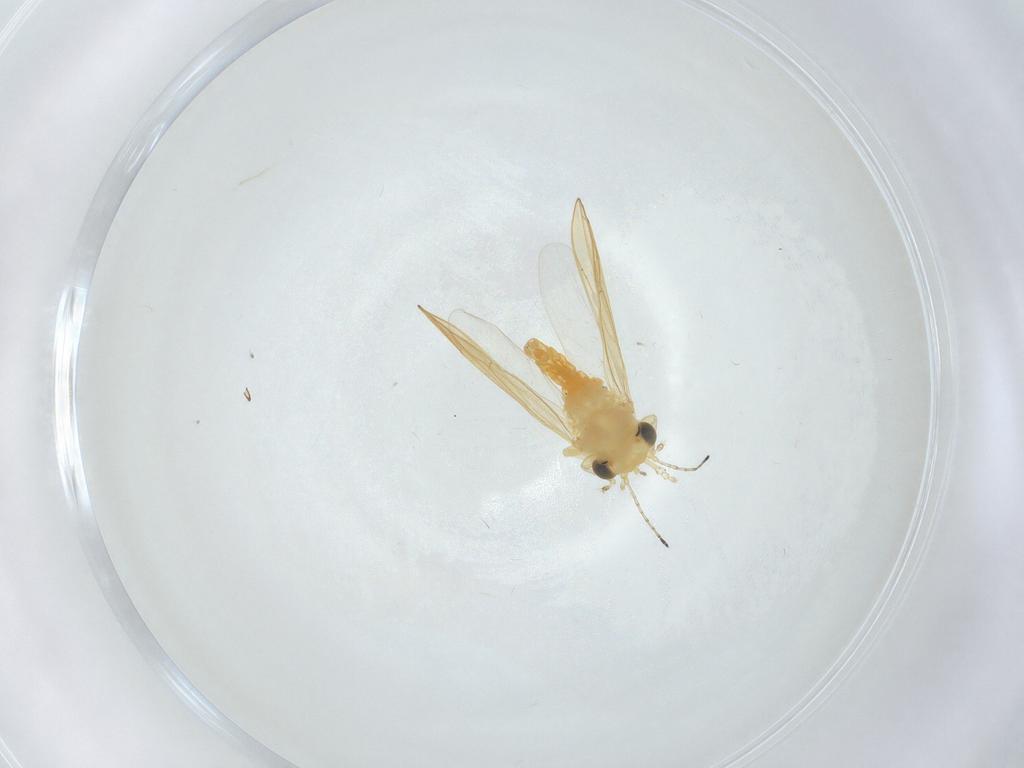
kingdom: Animalia
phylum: Arthropoda
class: Insecta
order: Hemiptera
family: Aphalaridae
